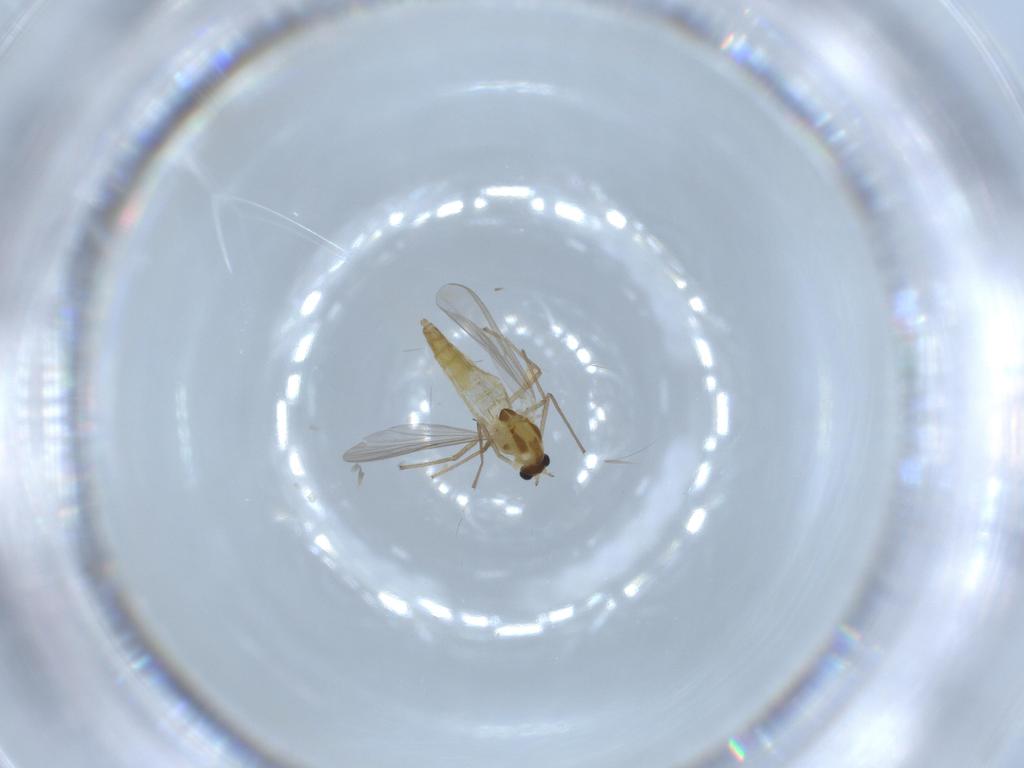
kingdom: Animalia
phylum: Arthropoda
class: Insecta
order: Diptera
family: Chironomidae
